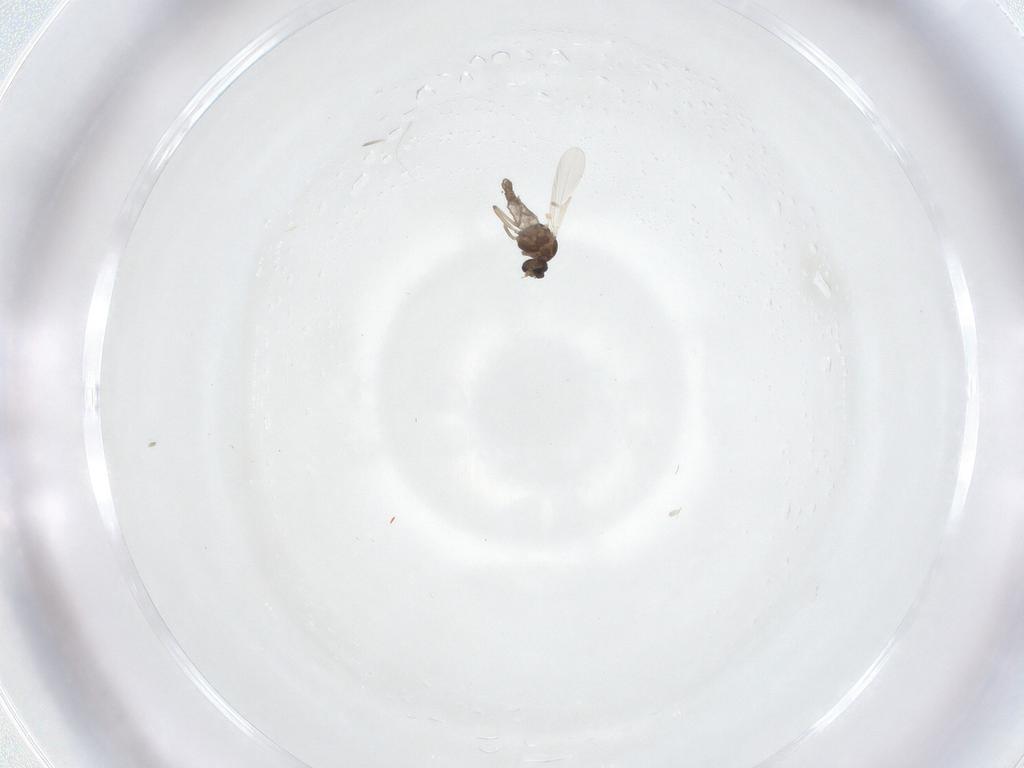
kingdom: Animalia
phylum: Arthropoda
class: Insecta
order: Diptera
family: Ceratopogonidae
